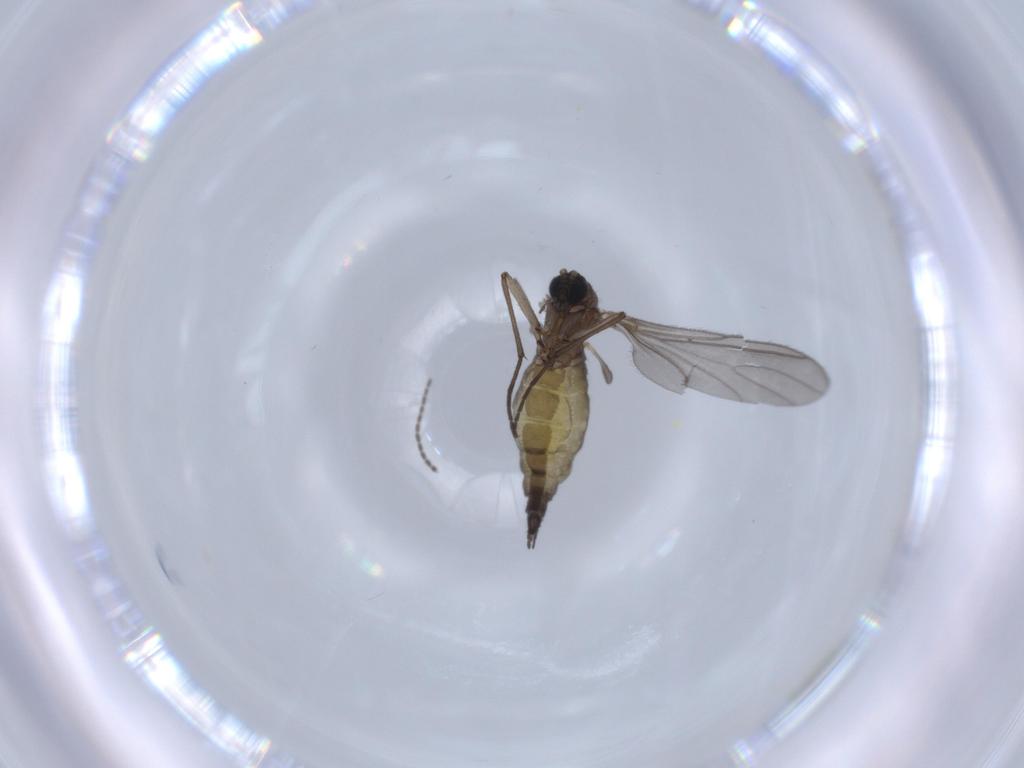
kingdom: Animalia
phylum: Arthropoda
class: Insecta
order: Diptera
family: Sciaridae
